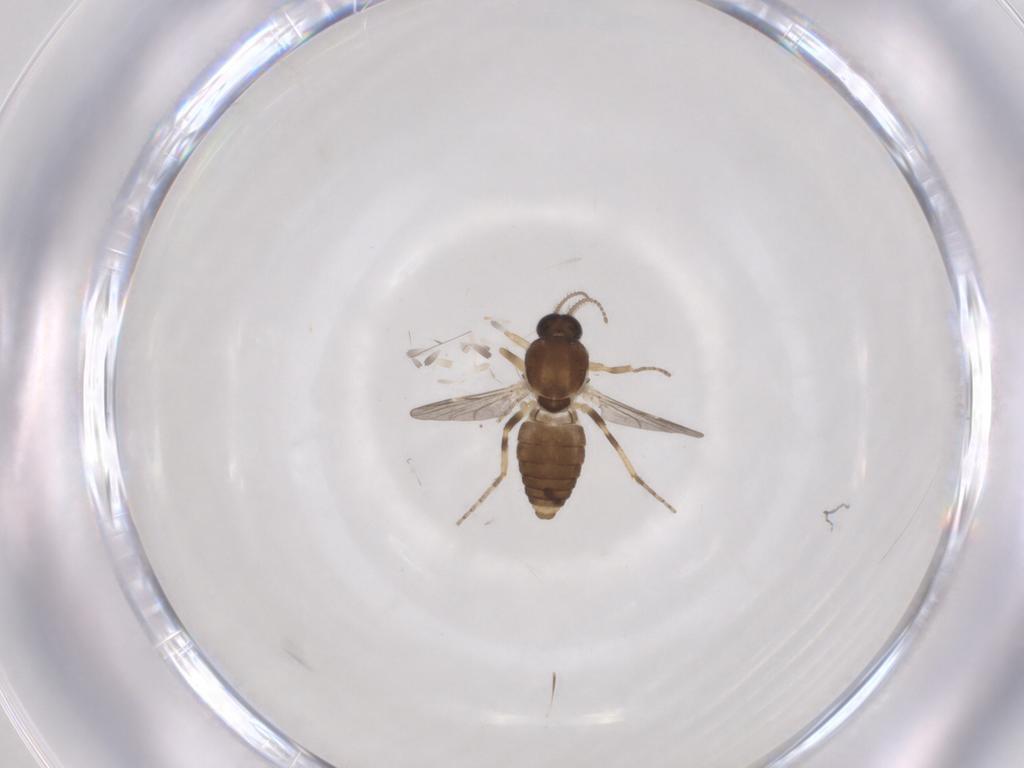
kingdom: Animalia
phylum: Arthropoda
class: Insecta
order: Diptera
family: Ceratopogonidae
